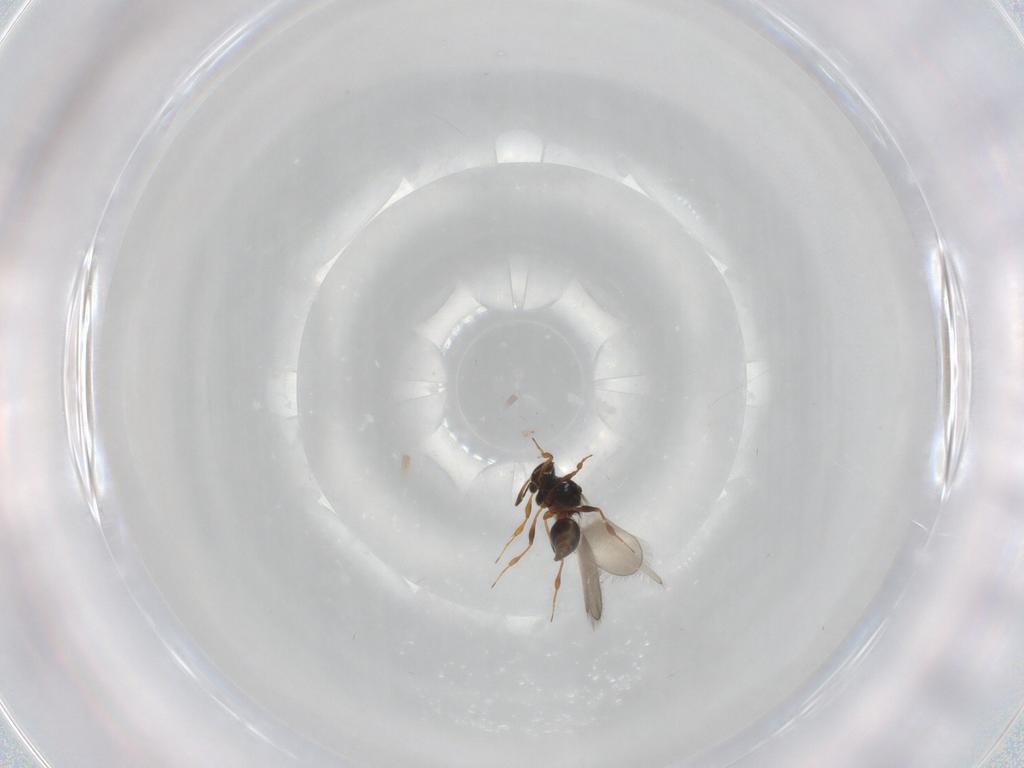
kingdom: Animalia
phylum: Arthropoda
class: Insecta
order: Hymenoptera
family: Platygastridae
